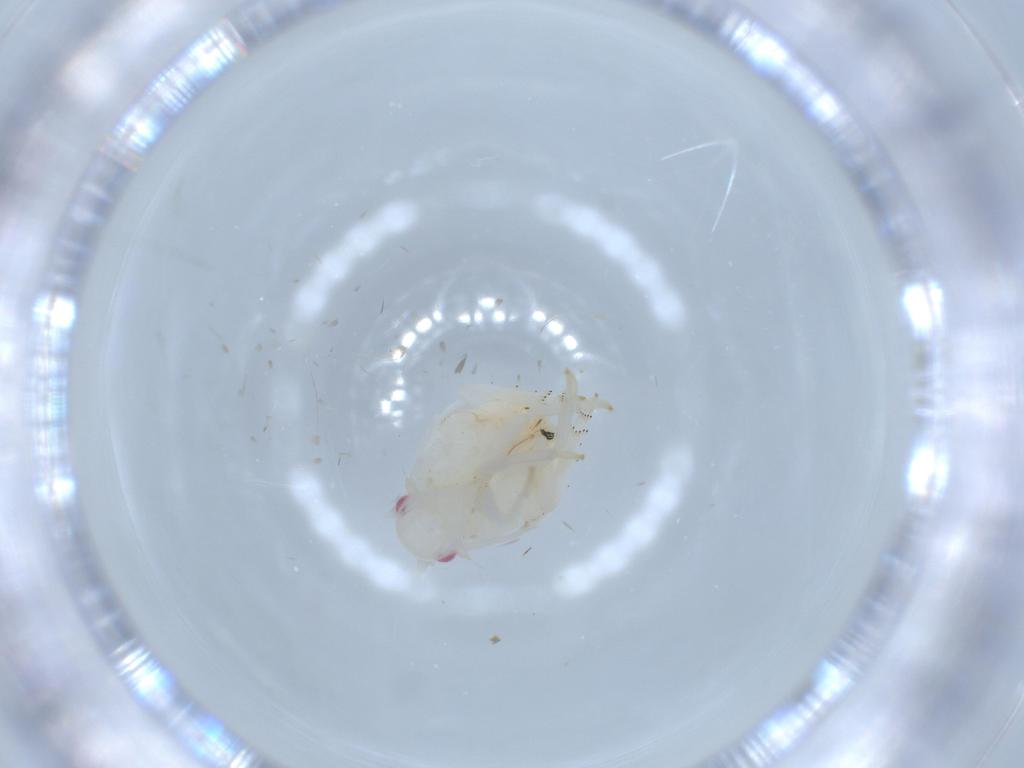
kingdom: Animalia
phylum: Arthropoda
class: Insecta
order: Hemiptera
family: Flatidae
